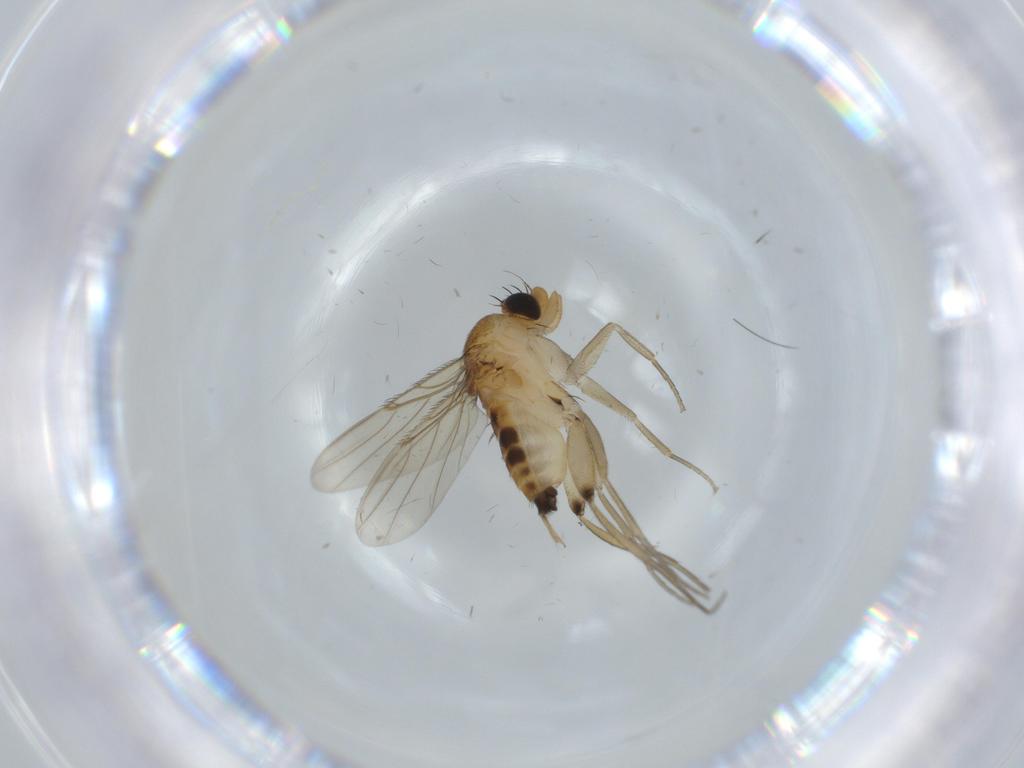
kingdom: Animalia
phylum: Arthropoda
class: Insecta
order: Diptera
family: Phoridae
